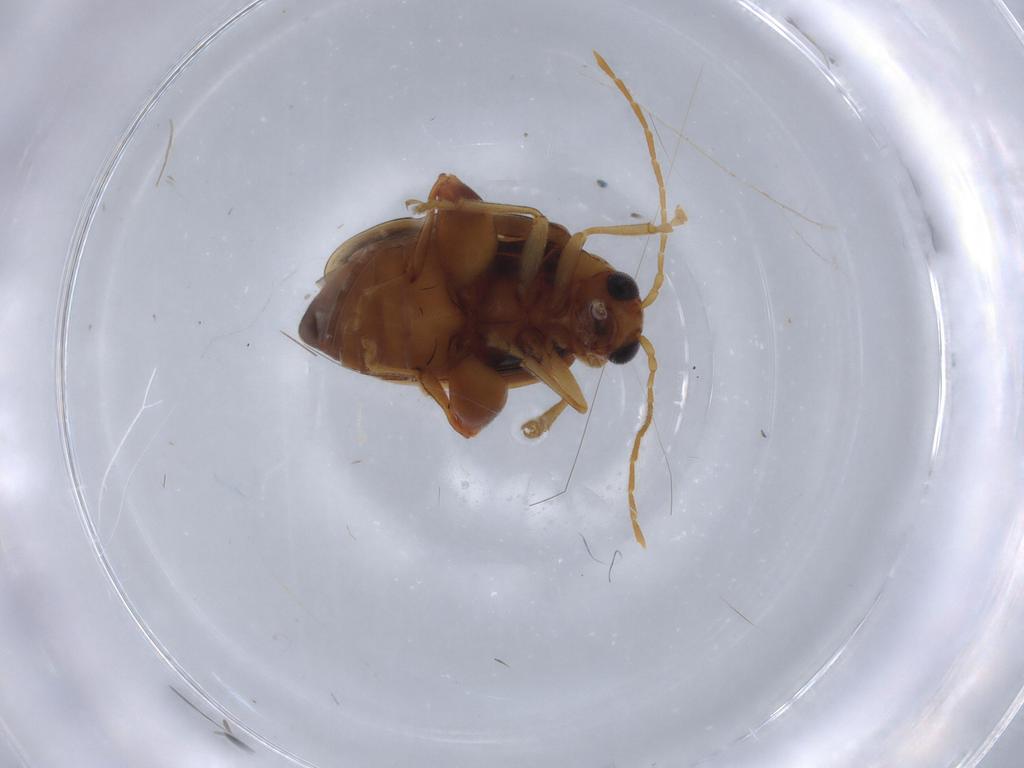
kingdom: Animalia
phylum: Arthropoda
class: Insecta
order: Coleoptera
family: Chrysomelidae
